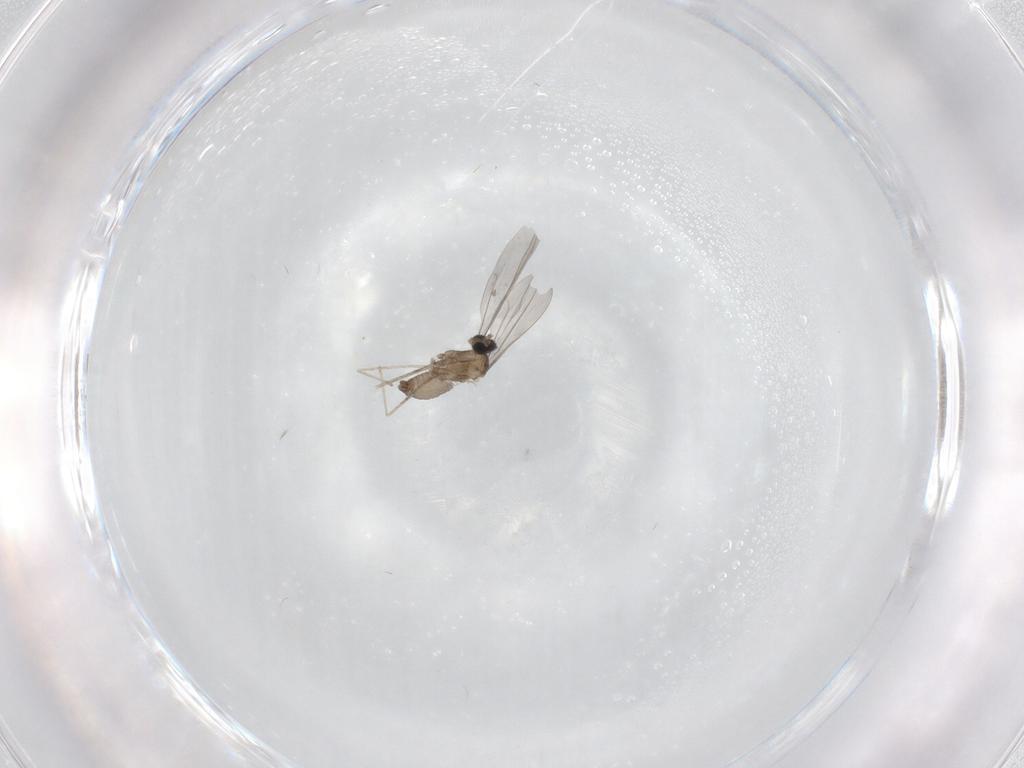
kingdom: Animalia
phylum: Arthropoda
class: Insecta
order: Diptera
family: Cecidomyiidae
